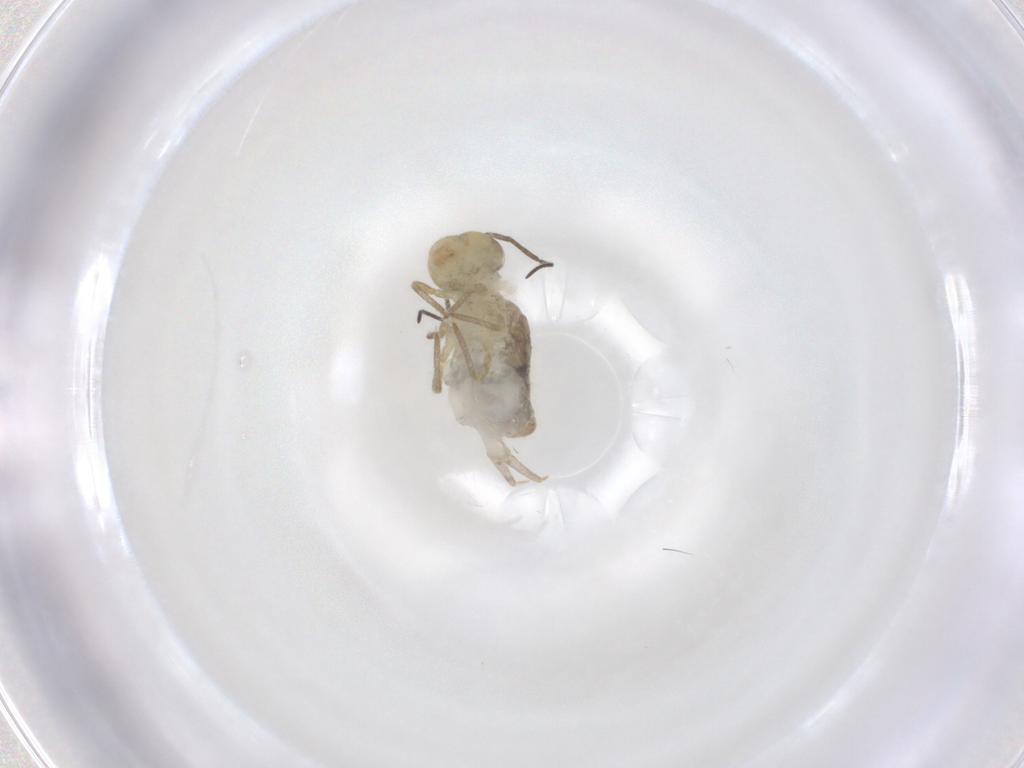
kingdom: Animalia
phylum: Arthropoda
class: Collembola
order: Symphypleona
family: Sminthuridae
